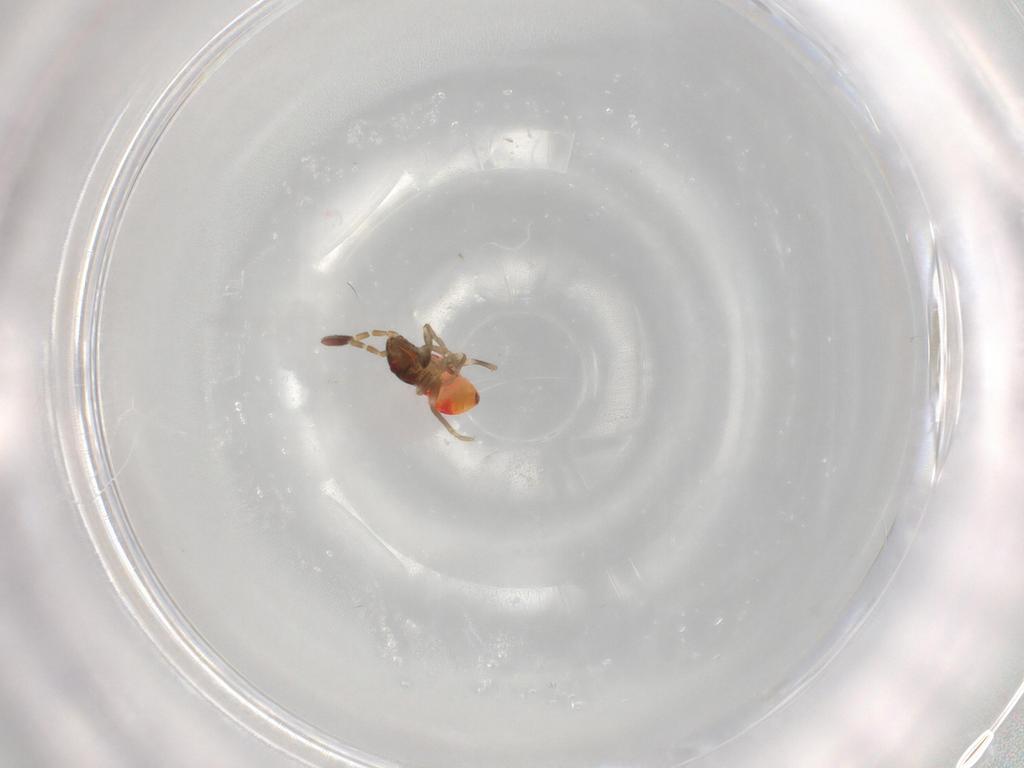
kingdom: Animalia
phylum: Arthropoda
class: Insecta
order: Hemiptera
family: Rhyparochromidae
